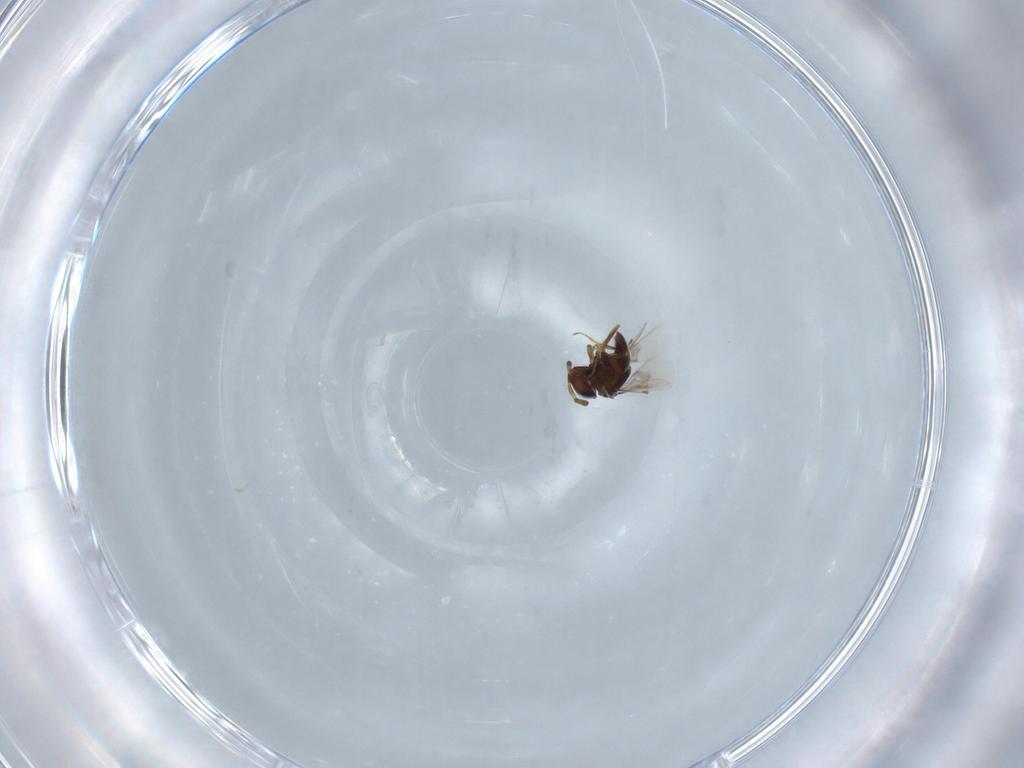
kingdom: Animalia
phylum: Arthropoda
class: Insecta
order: Hymenoptera
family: Scelionidae
